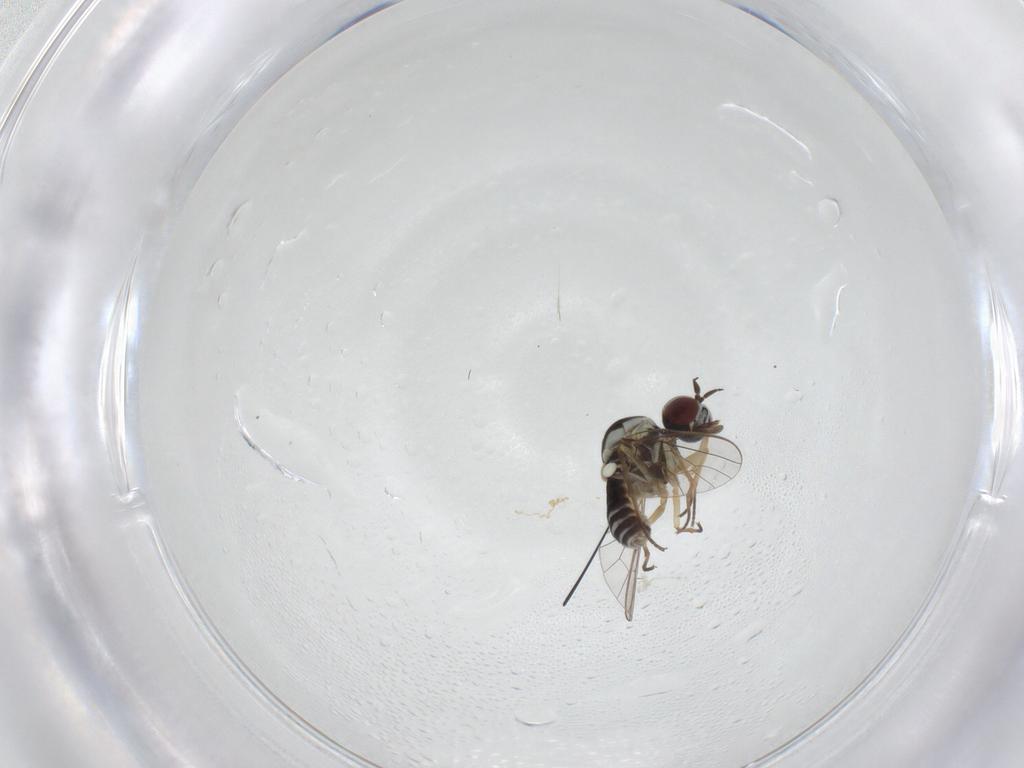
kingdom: Animalia
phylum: Arthropoda
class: Insecta
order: Diptera
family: Bombyliidae
